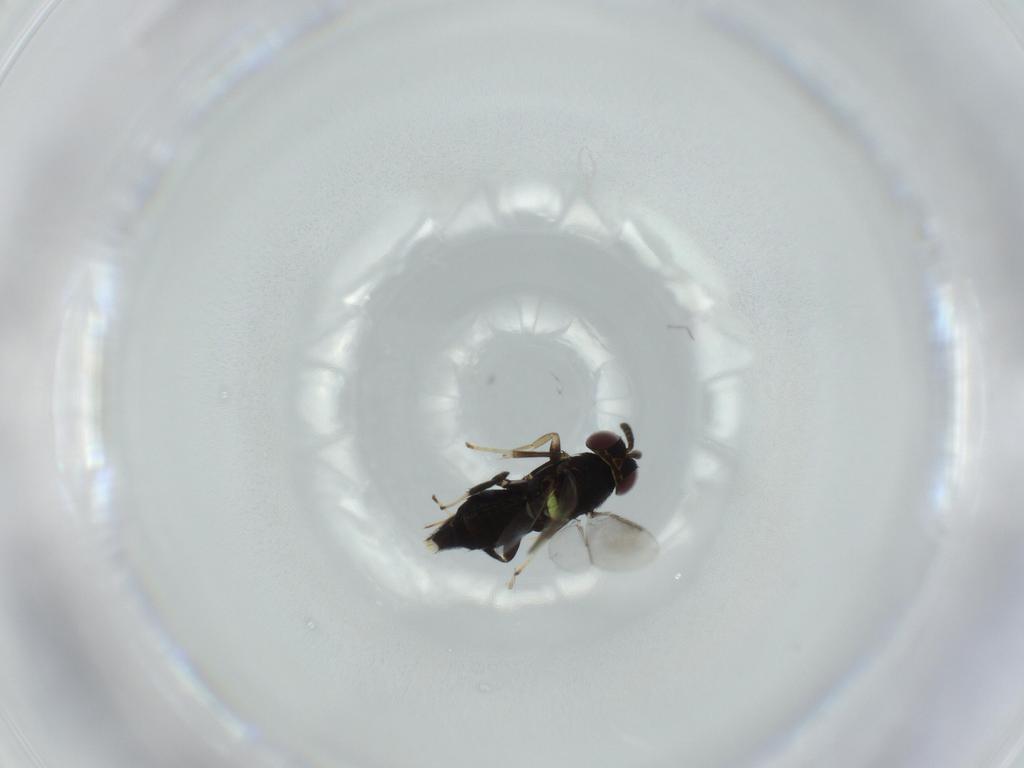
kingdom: Animalia
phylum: Arthropoda
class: Insecta
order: Hymenoptera
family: Aphelinidae
